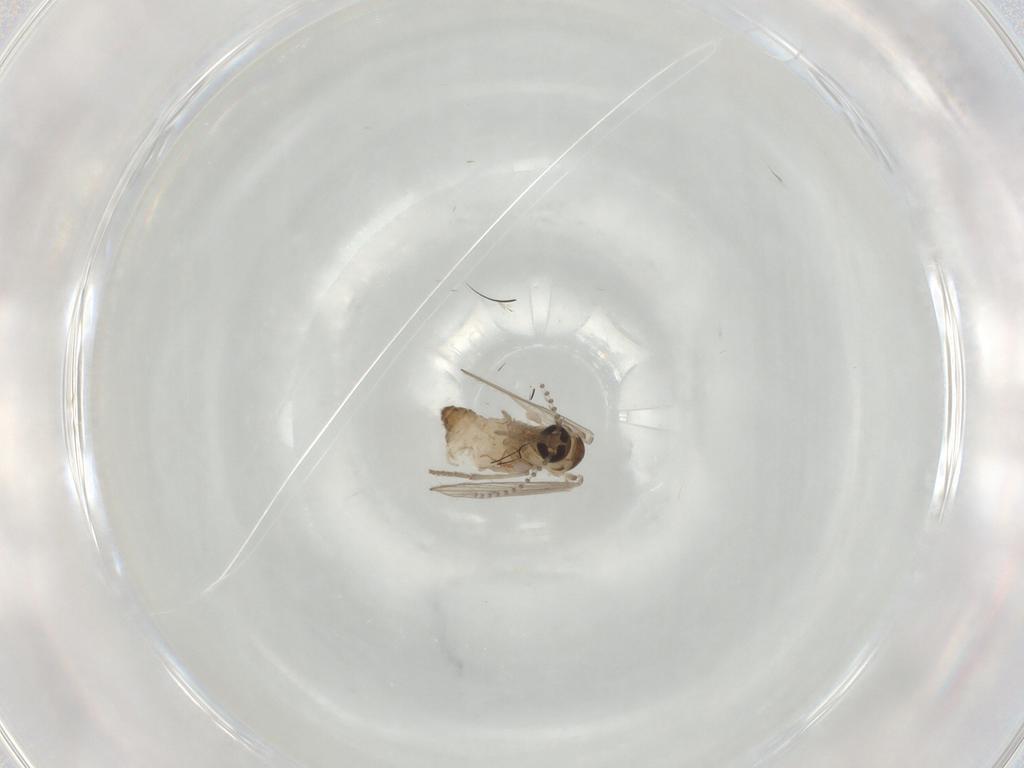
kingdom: Animalia
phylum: Arthropoda
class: Insecta
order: Diptera
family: Psychodidae
